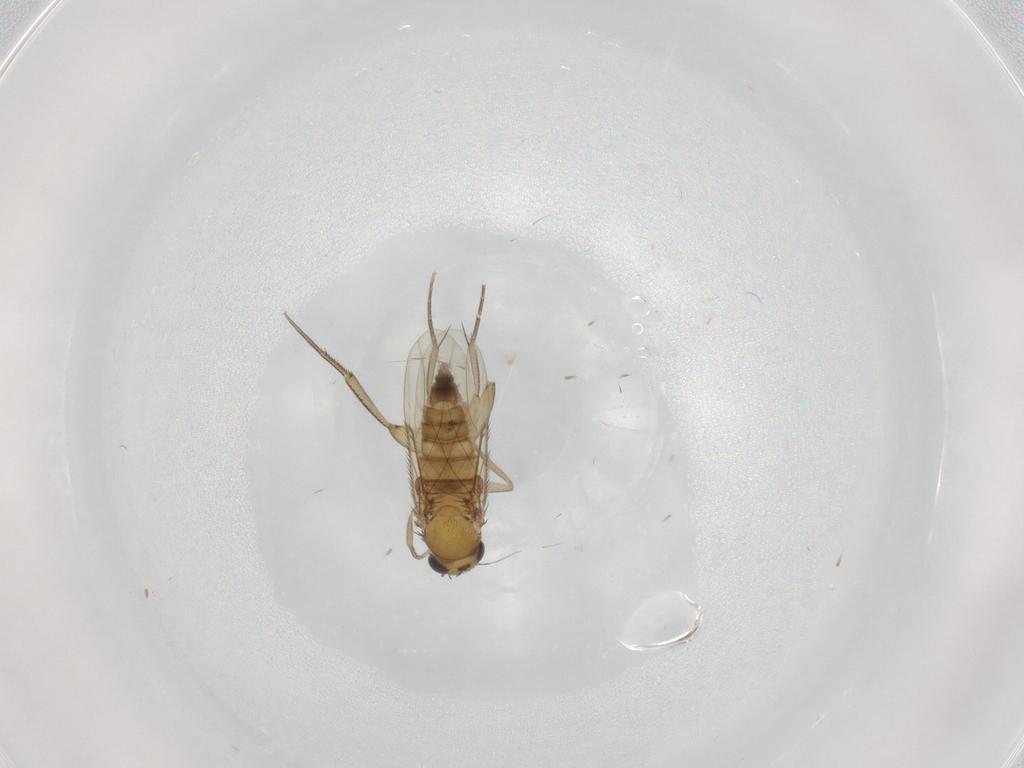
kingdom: Animalia
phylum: Arthropoda
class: Insecta
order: Diptera
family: Phoridae
